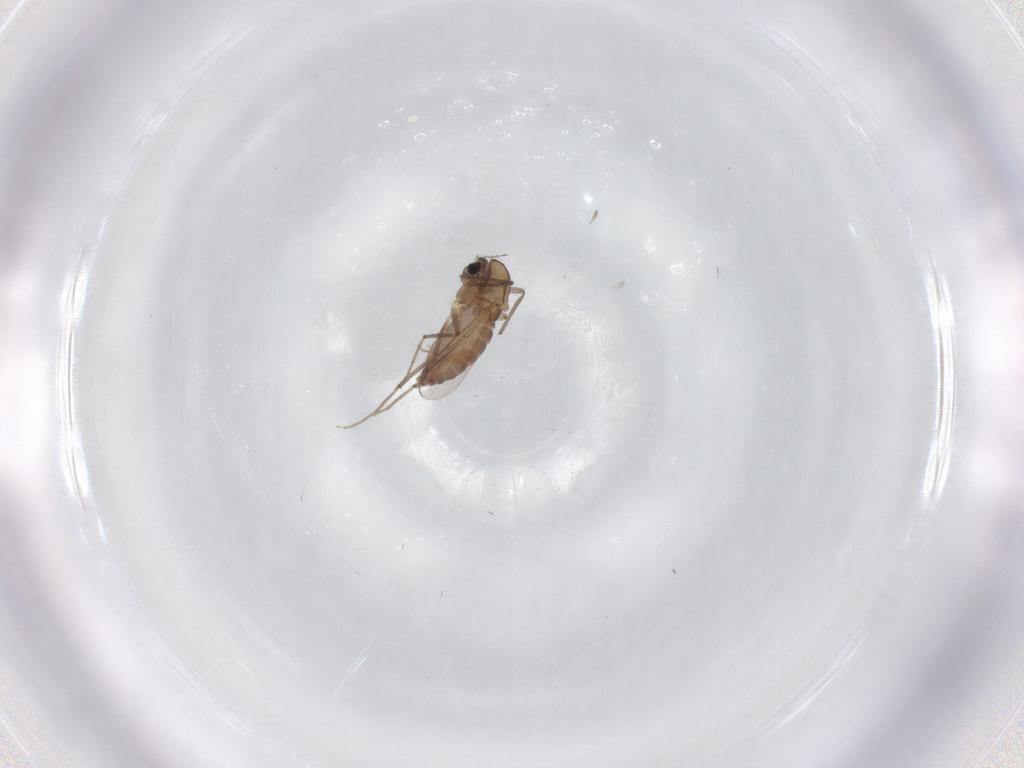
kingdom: Animalia
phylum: Arthropoda
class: Insecta
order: Diptera
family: Chironomidae
